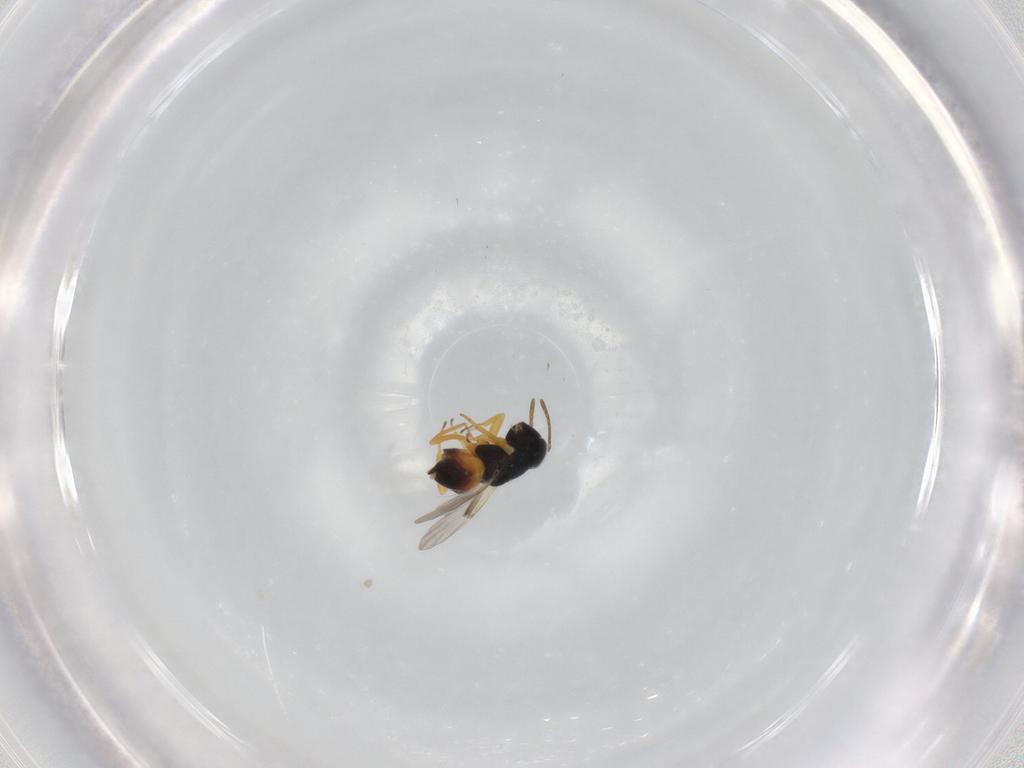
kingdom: Animalia
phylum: Arthropoda
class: Insecta
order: Hymenoptera
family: Encyrtidae
